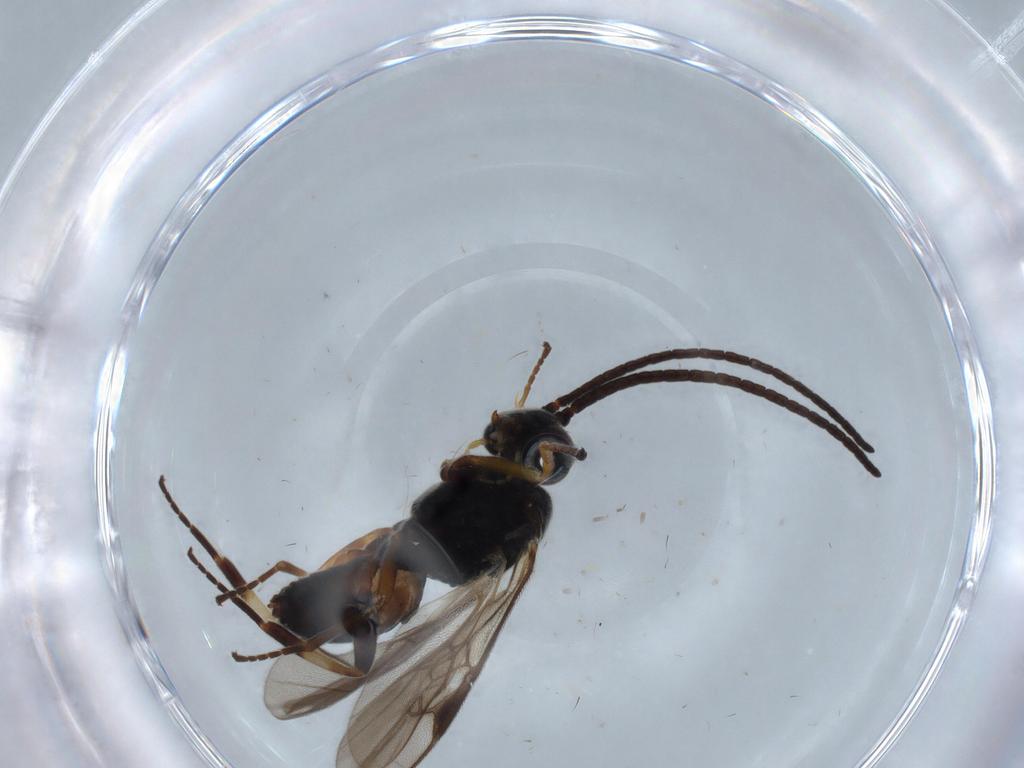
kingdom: Animalia
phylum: Arthropoda
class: Insecta
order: Hymenoptera
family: Braconidae
